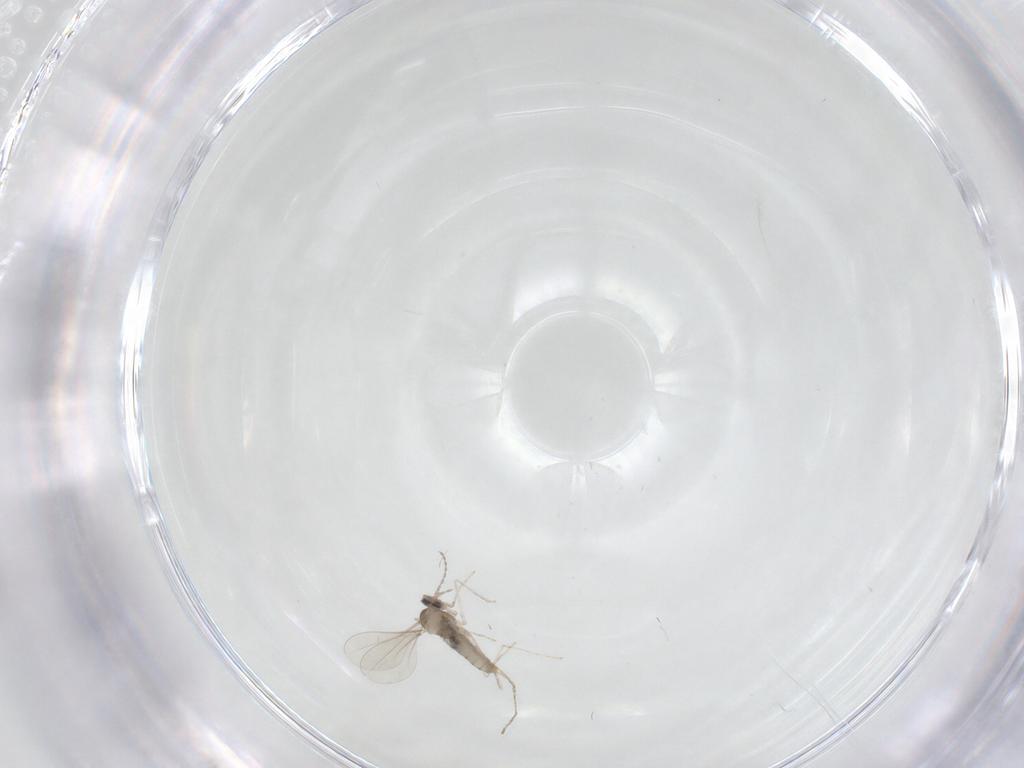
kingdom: Animalia
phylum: Arthropoda
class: Insecta
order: Diptera
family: Cecidomyiidae
